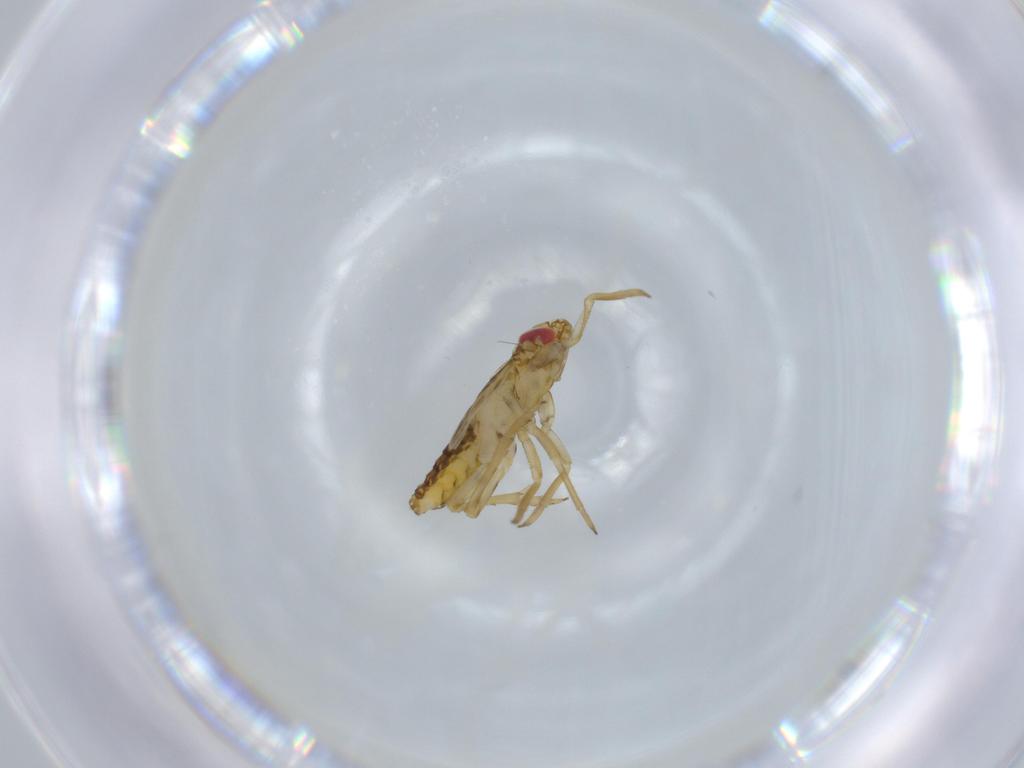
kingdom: Animalia
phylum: Arthropoda
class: Insecta
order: Hemiptera
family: Delphacidae
